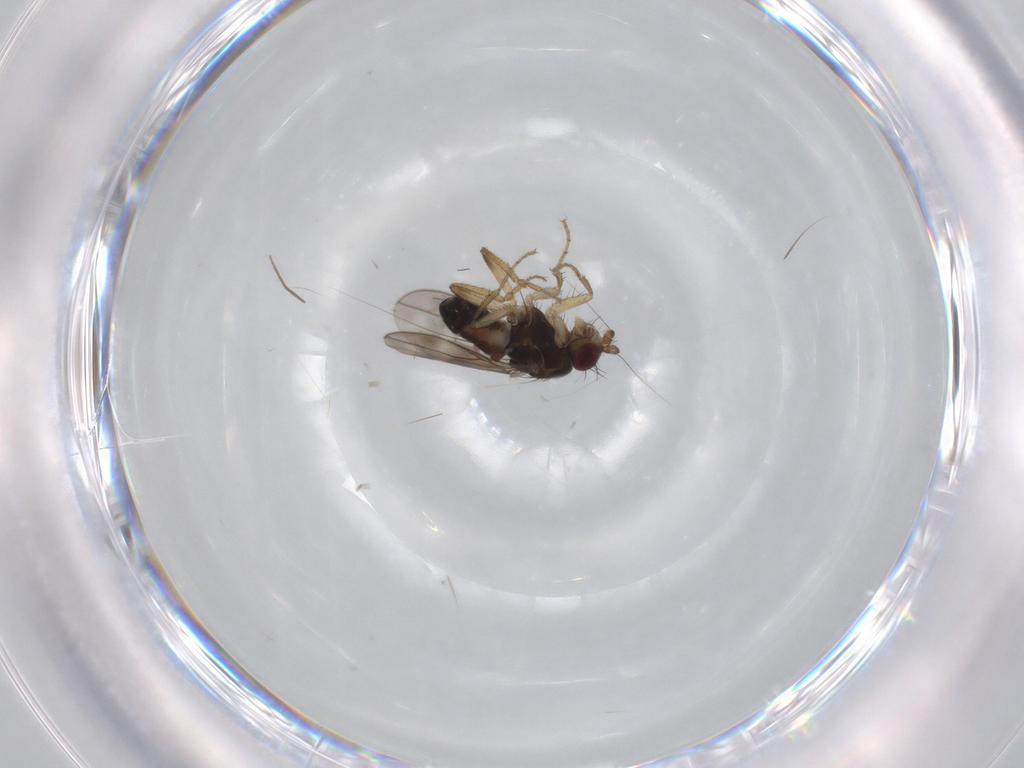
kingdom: Animalia
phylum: Arthropoda
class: Insecta
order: Diptera
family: Sphaeroceridae
